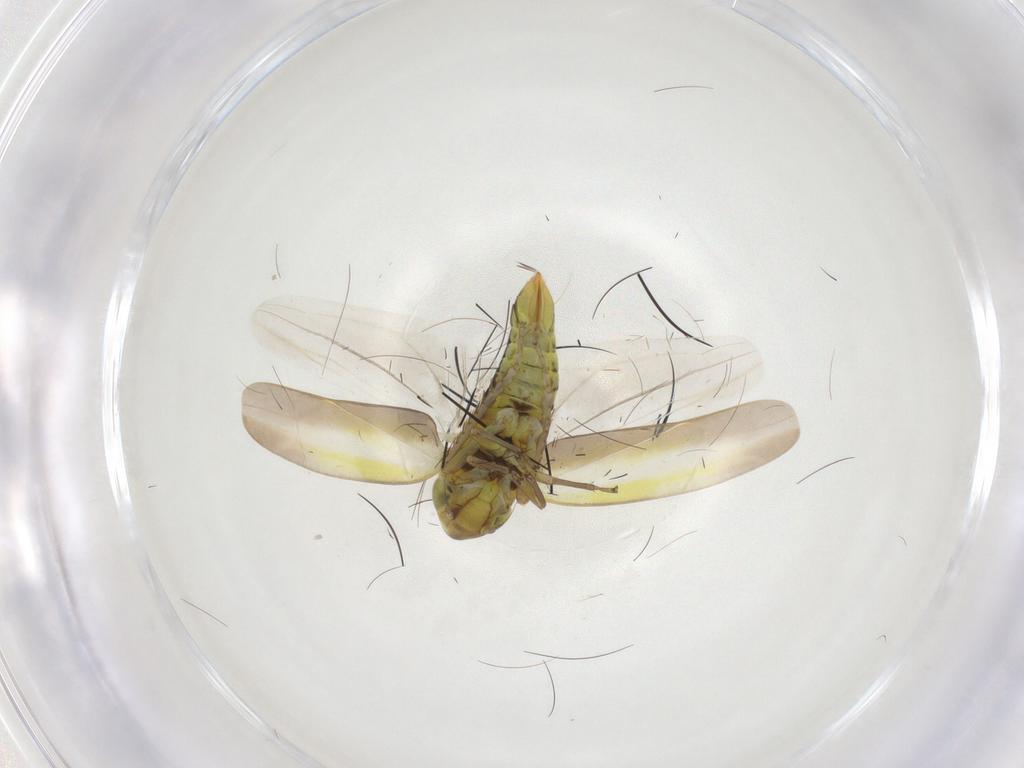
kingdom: Animalia
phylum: Arthropoda
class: Insecta
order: Hemiptera
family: Cicadellidae
